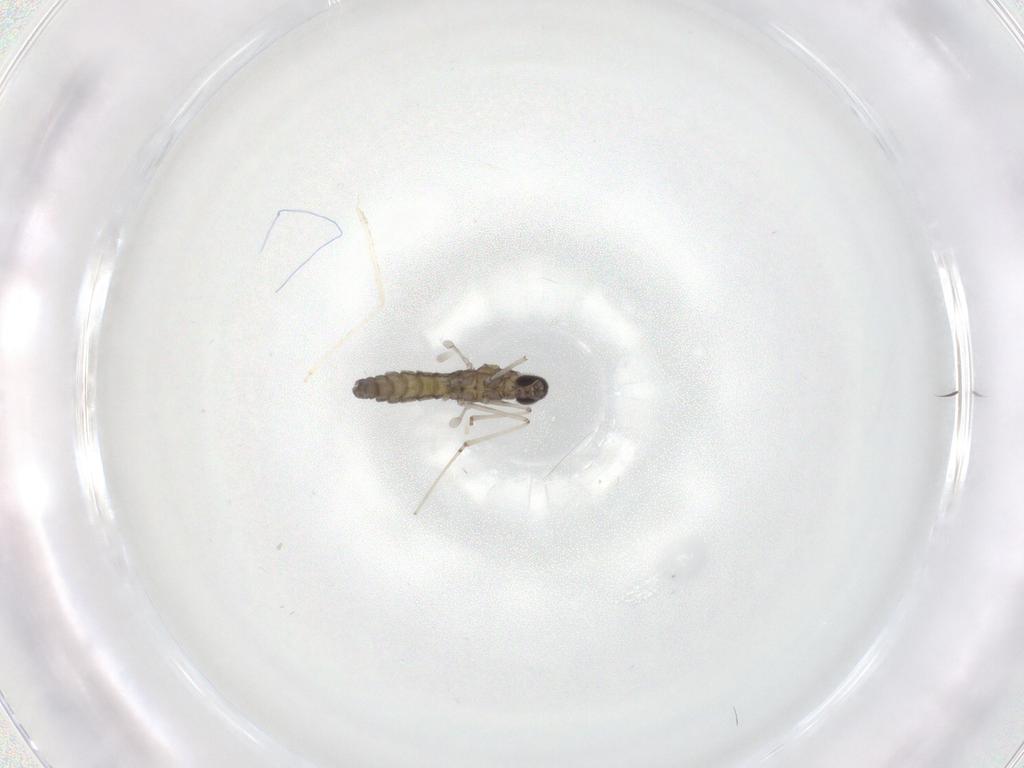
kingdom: Animalia
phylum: Arthropoda
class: Insecta
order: Diptera
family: Cecidomyiidae
